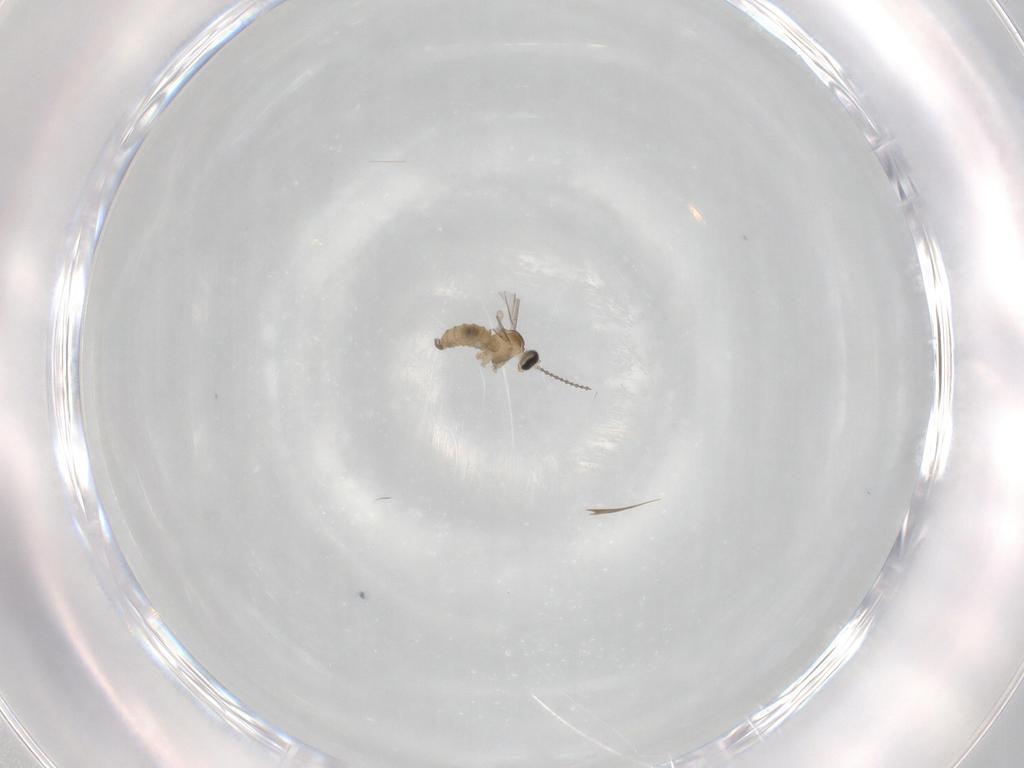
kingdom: Animalia
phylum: Arthropoda
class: Insecta
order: Diptera
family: Cecidomyiidae
